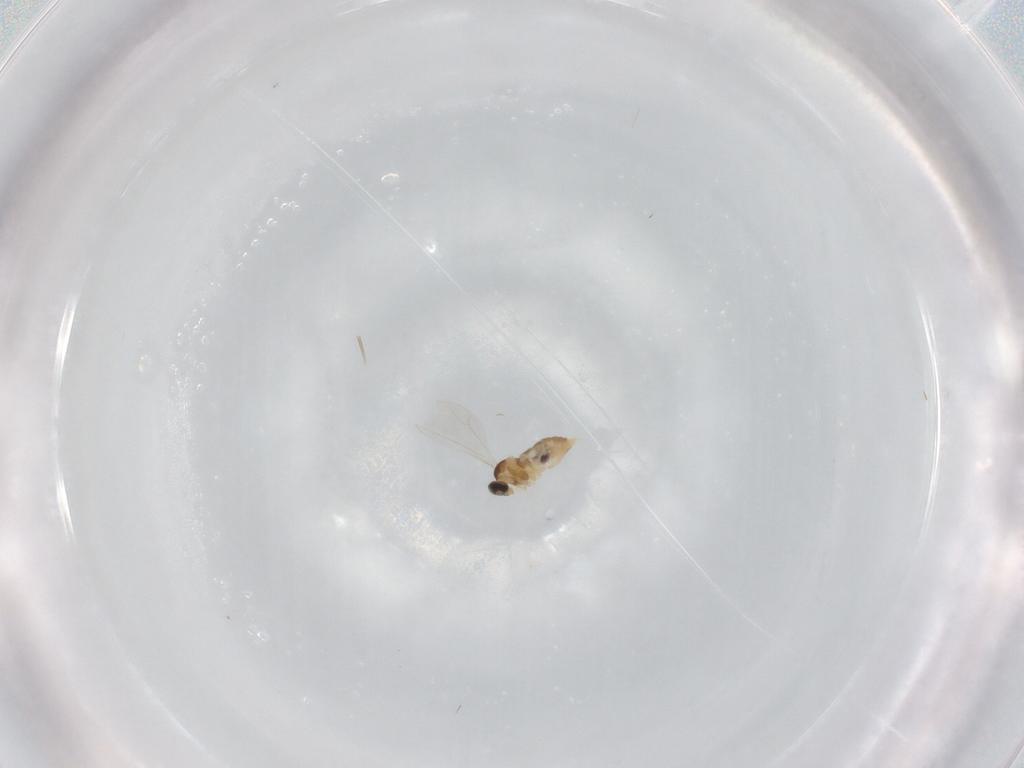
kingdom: Animalia
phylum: Arthropoda
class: Insecta
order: Diptera
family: Cecidomyiidae
